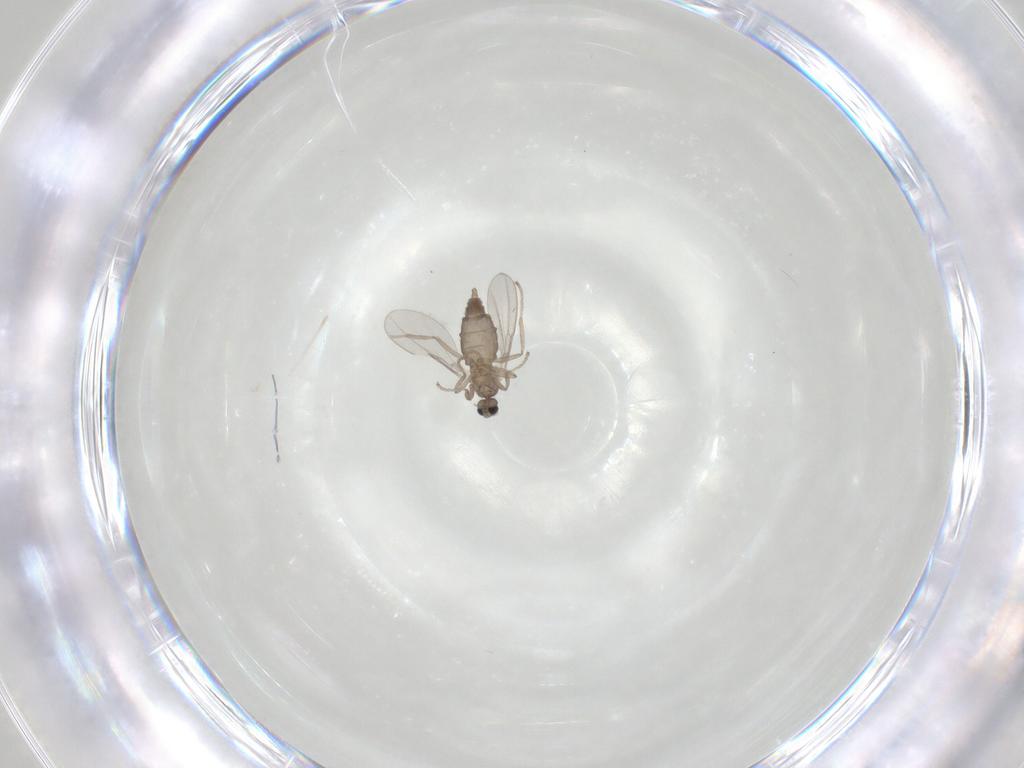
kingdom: Animalia
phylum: Arthropoda
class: Insecta
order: Diptera
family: Cecidomyiidae
